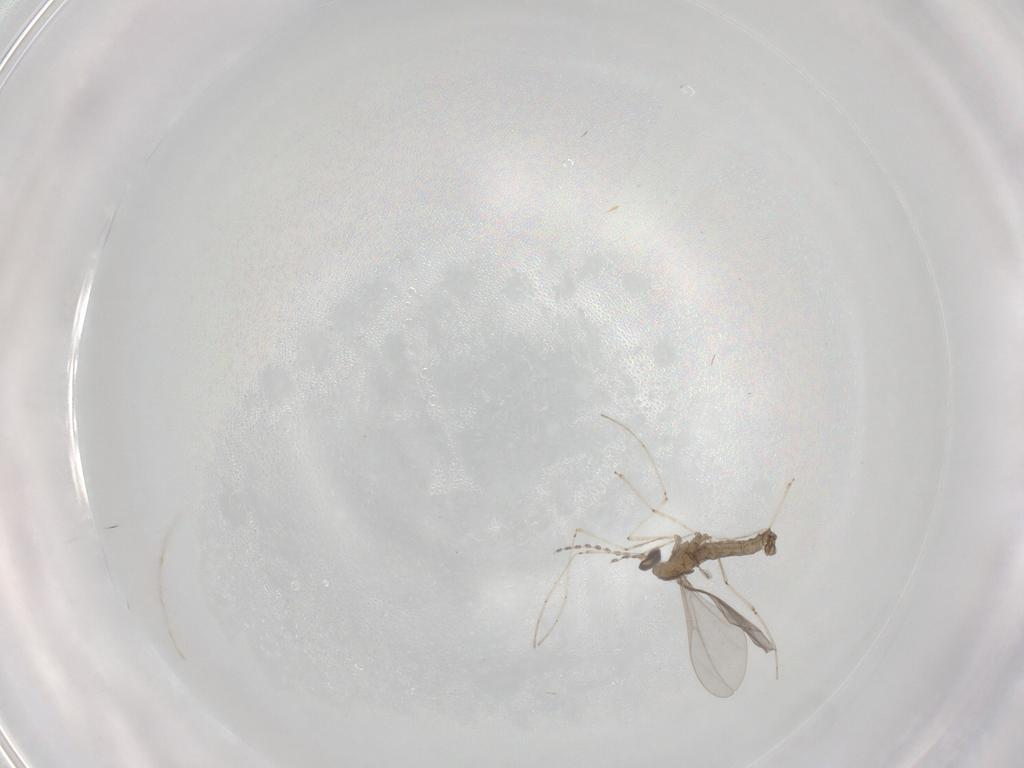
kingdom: Animalia
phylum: Arthropoda
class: Insecta
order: Diptera
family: Cecidomyiidae
